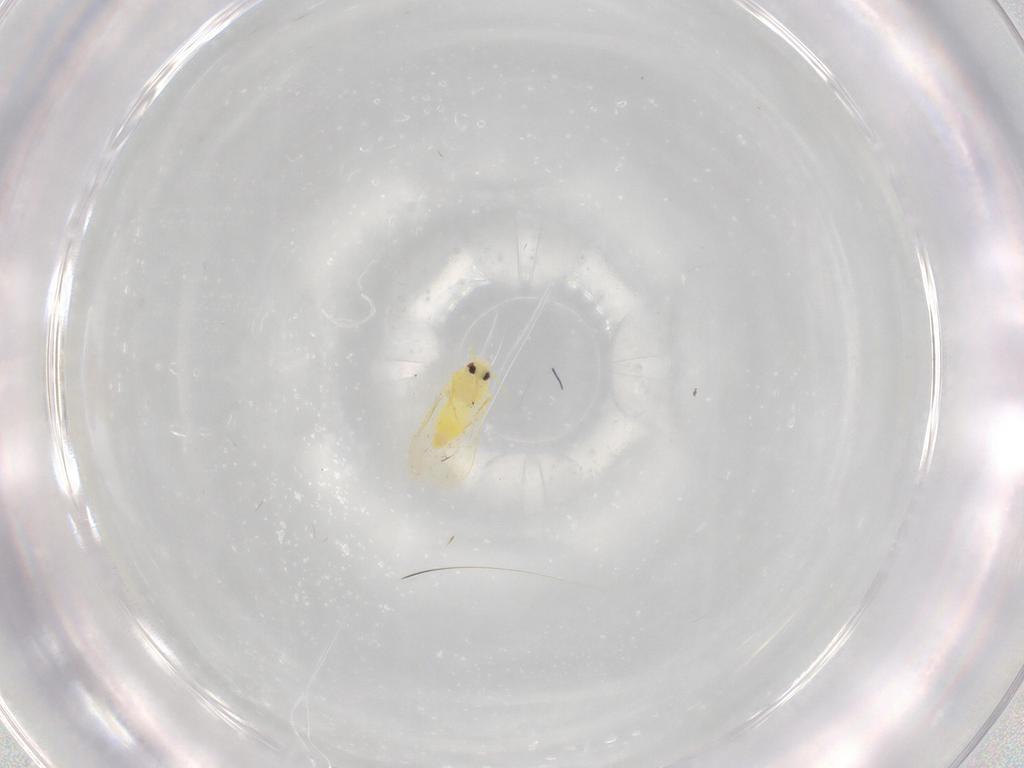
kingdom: Animalia
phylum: Arthropoda
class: Insecta
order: Hemiptera
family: Aleyrodidae
